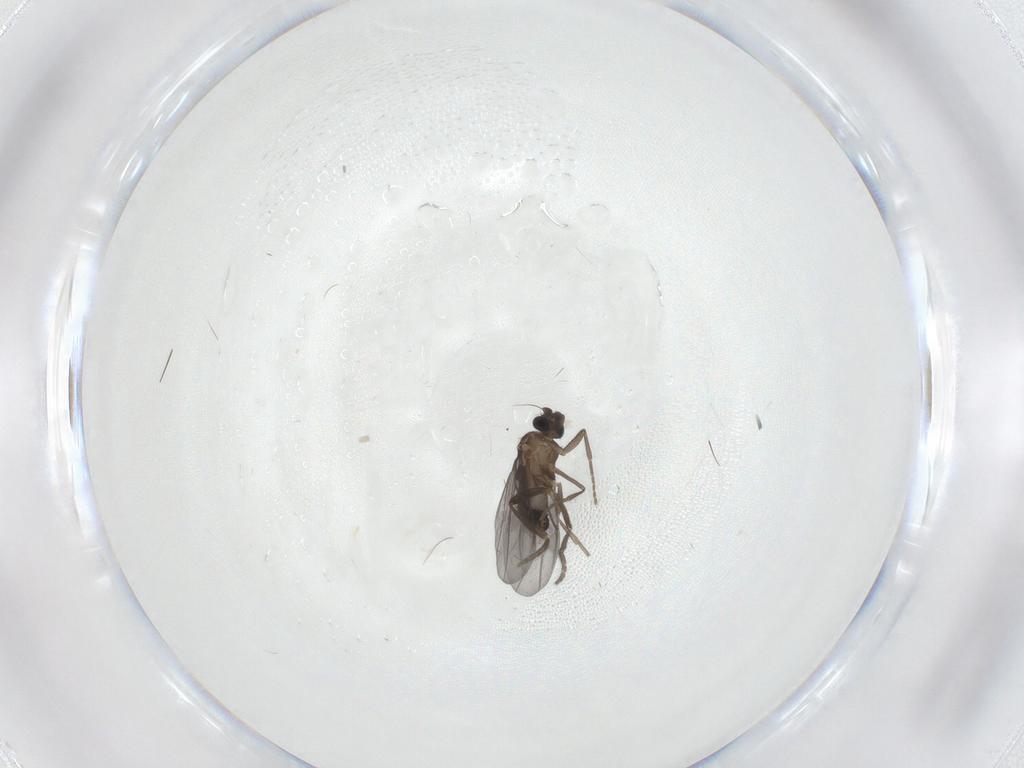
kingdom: Animalia
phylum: Arthropoda
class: Insecta
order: Diptera
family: Phoridae
